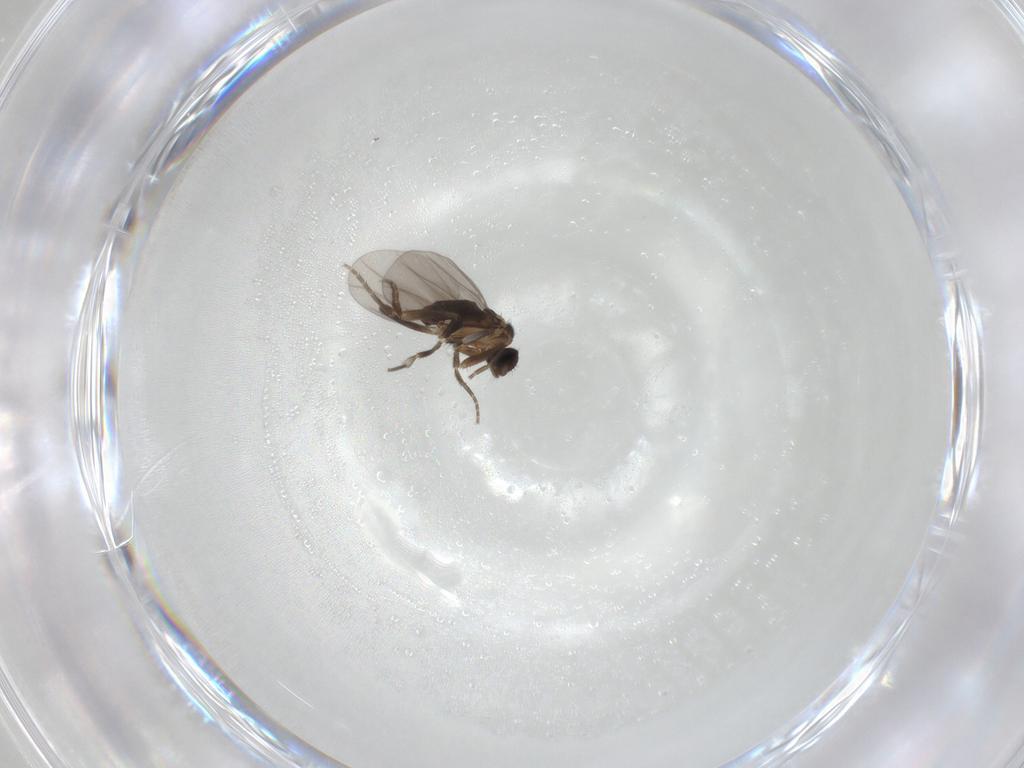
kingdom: Animalia
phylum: Arthropoda
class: Insecta
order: Diptera
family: Phoridae
